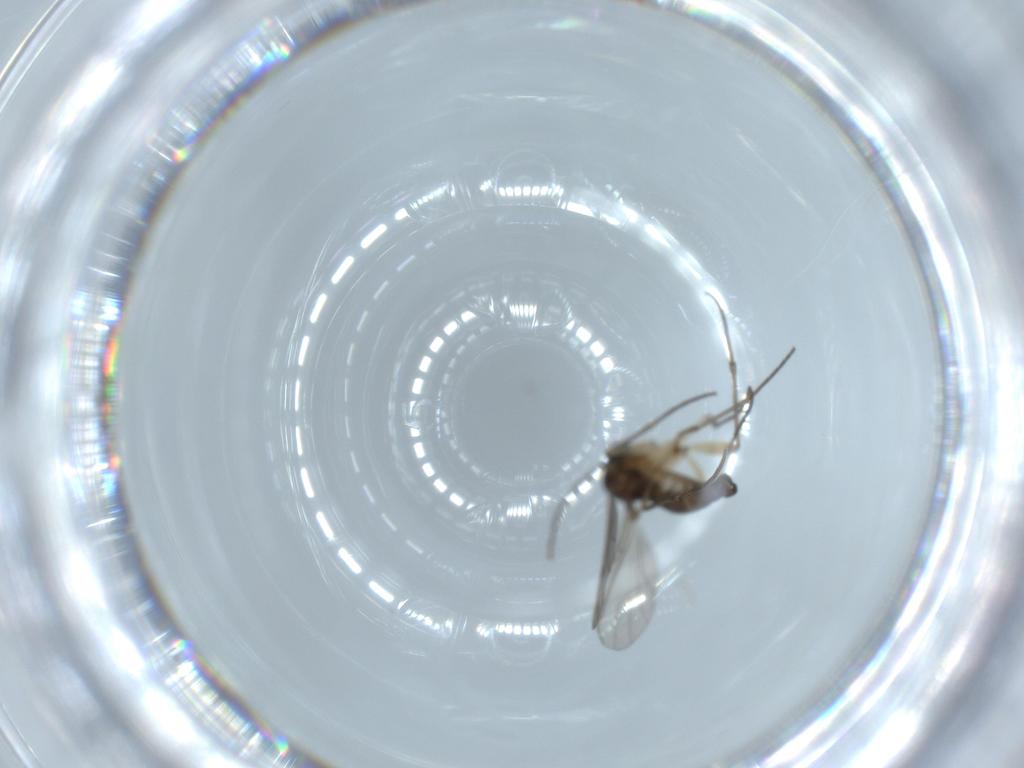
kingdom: Animalia
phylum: Arthropoda
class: Insecta
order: Diptera
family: Sciaridae
